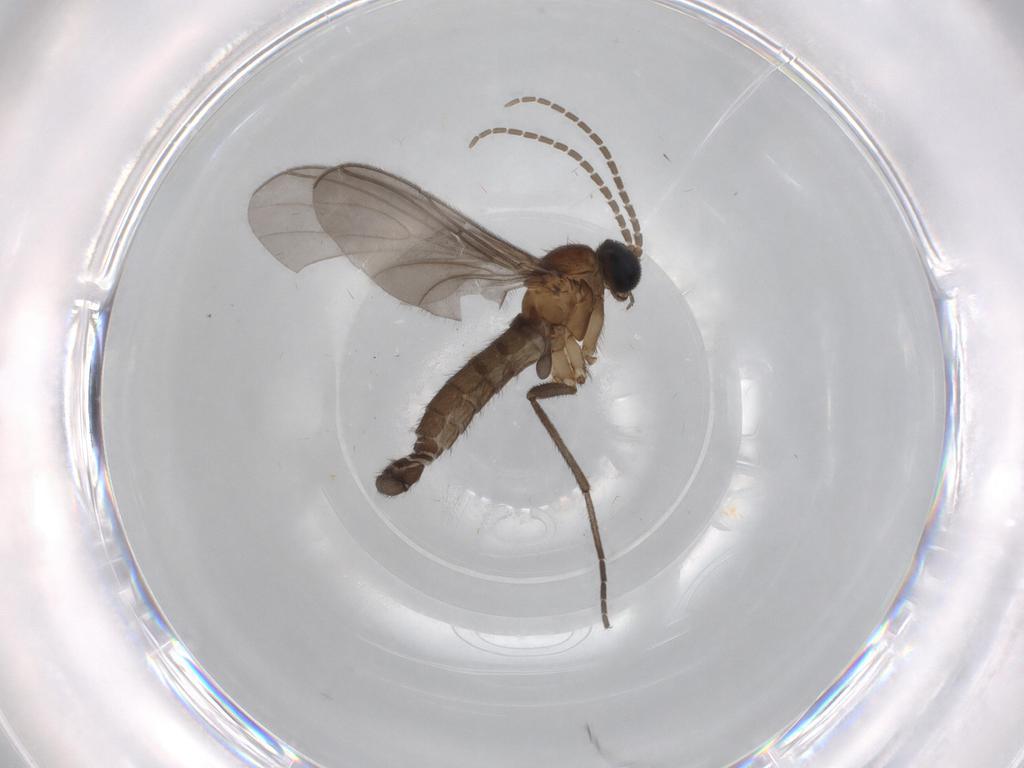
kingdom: Animalia
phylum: Arthropoda
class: Insecta
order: Diptera
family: Sciaridae
